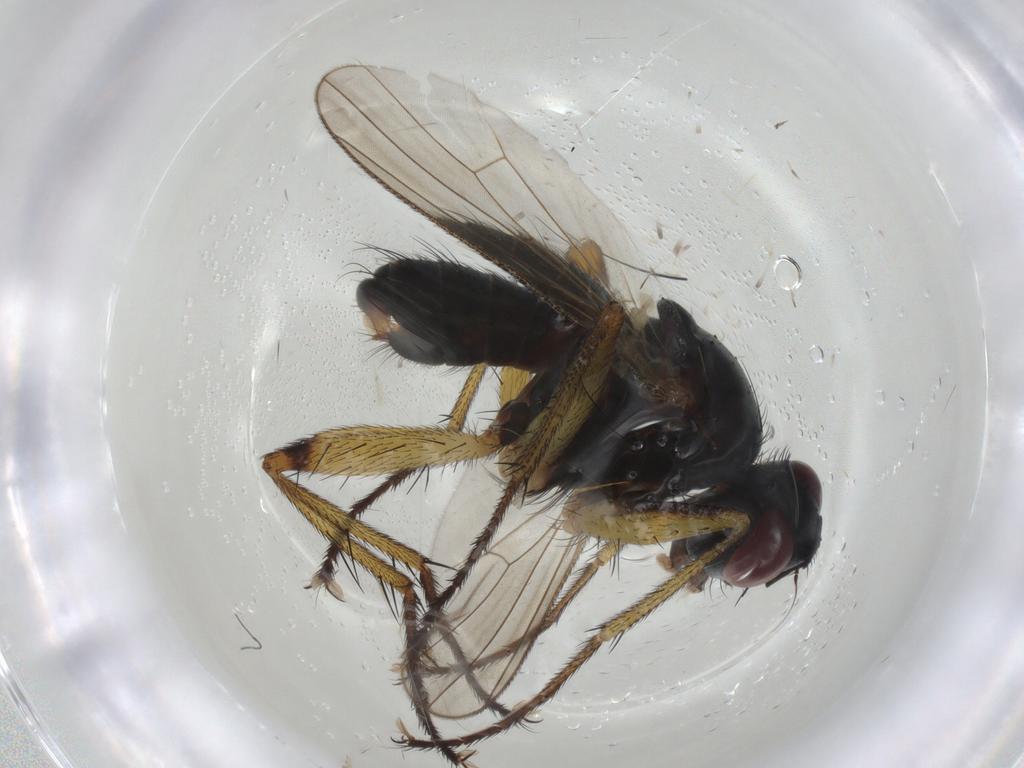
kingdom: Animalia
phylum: Arthropoda
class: Insecta
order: Diptera
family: Muscidae
